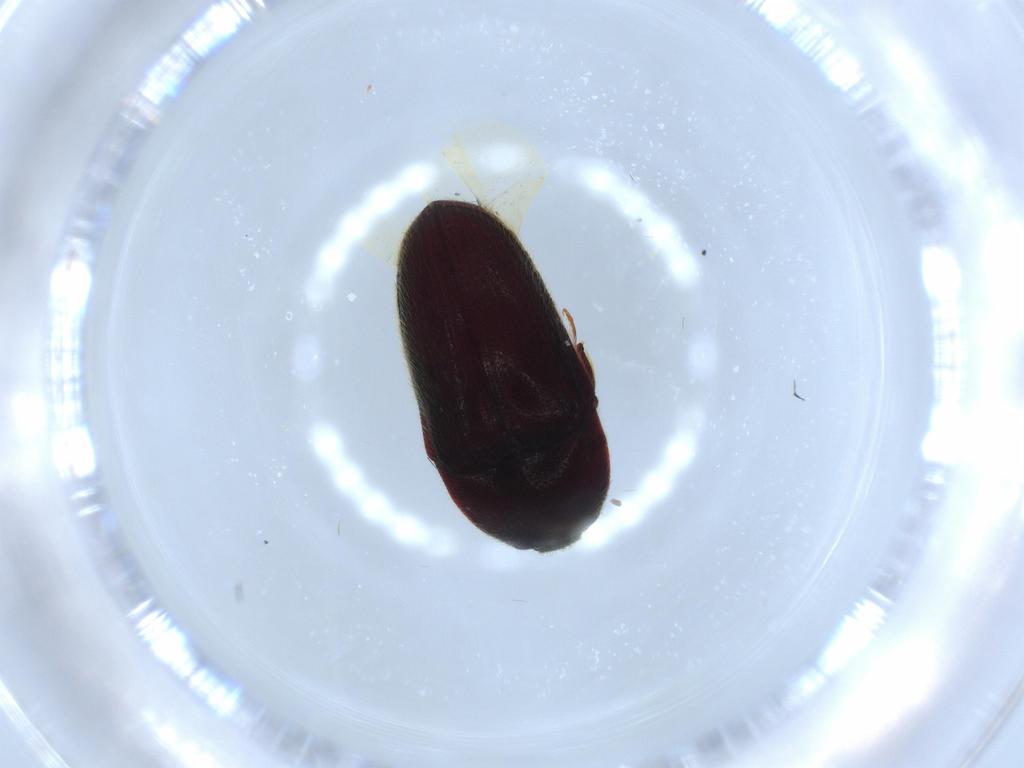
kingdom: Animalia
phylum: Arthropoda
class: Insecta
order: Coleoptera
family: Throscidae
